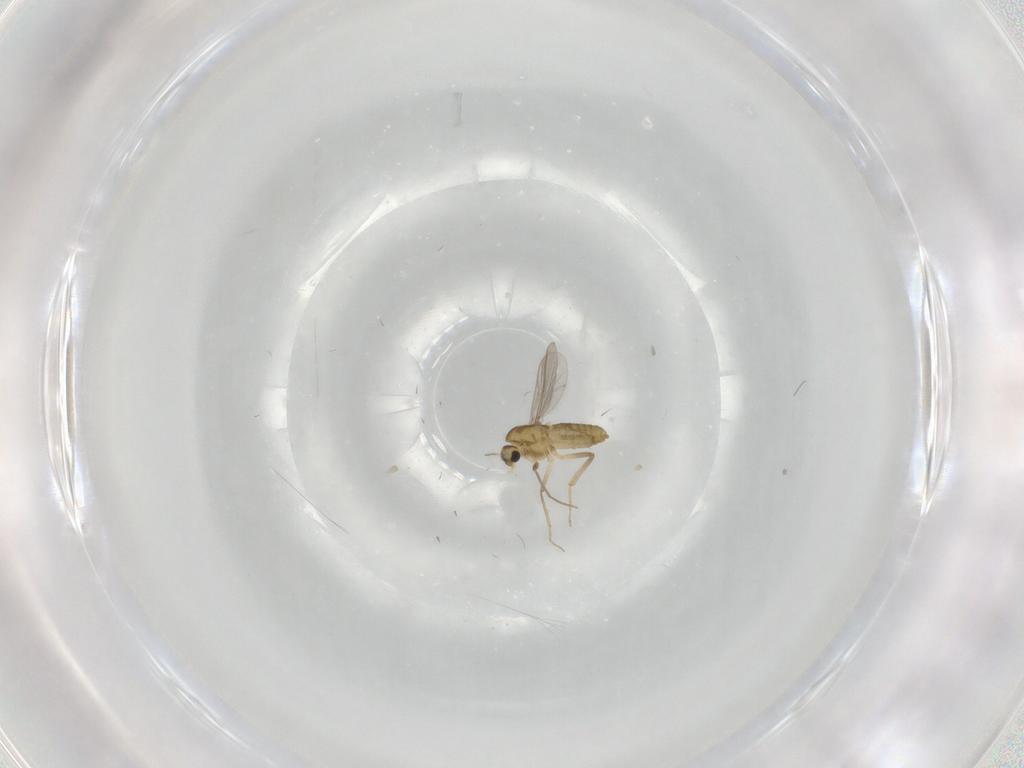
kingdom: Animalia
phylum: Arthropoda
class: Insecta
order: Diptera
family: Chironomidae
